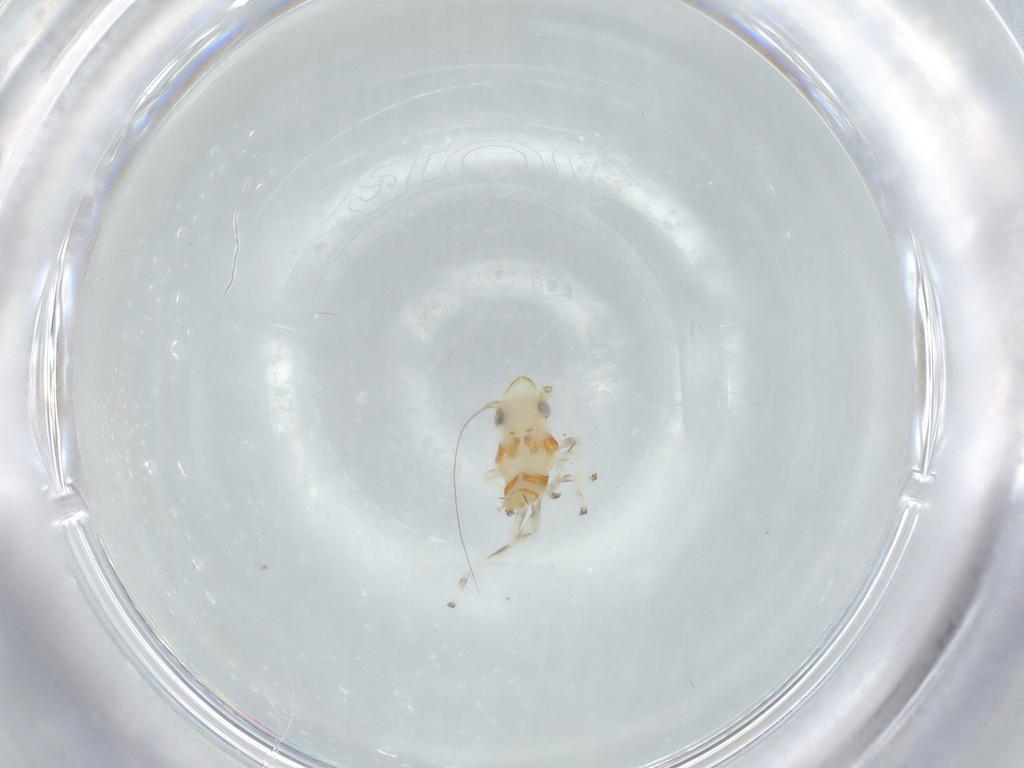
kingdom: Animalia
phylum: Arthropoda
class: Insecta
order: Hemiptera
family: Cicadellidae
